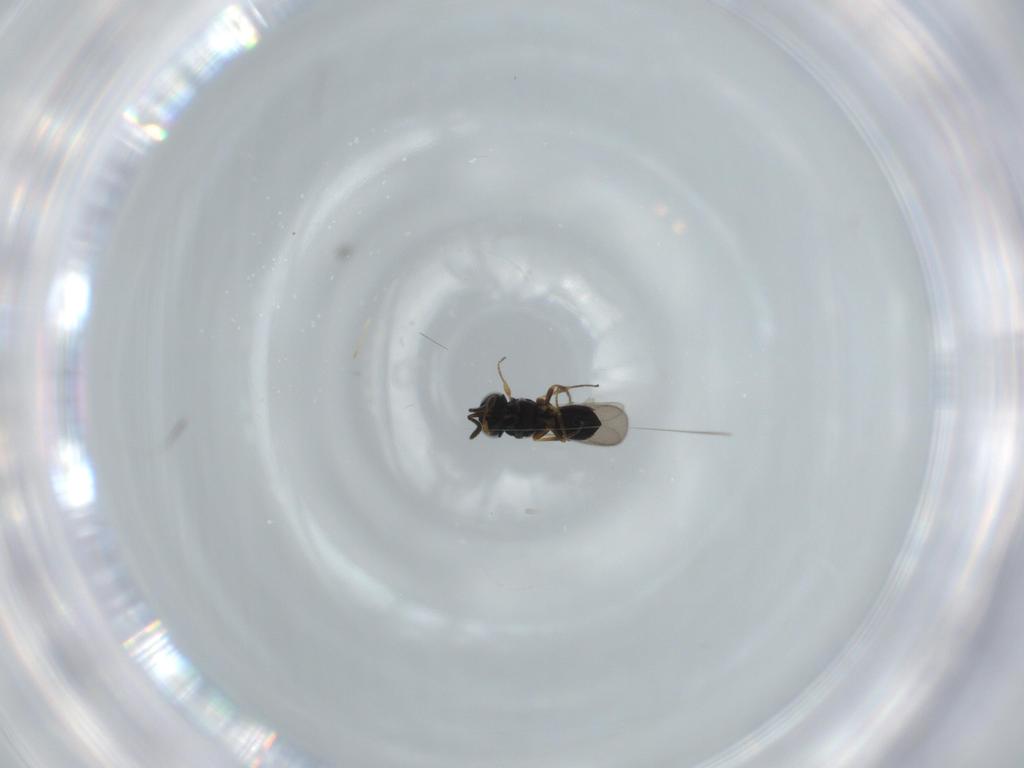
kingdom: Animalia
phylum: Arthropoda
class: Insecta
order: Hymenoptera
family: Scelionidae
